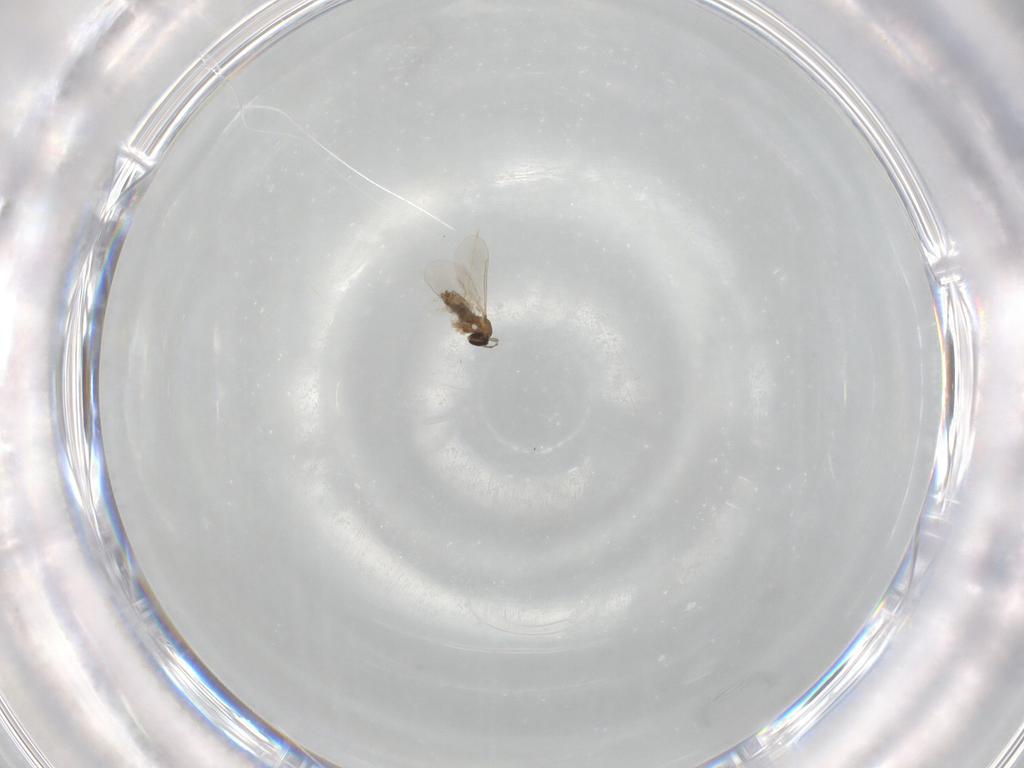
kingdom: Animalia
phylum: Arthropoda
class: Insecta
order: Diptera
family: Cecidomyiidae
